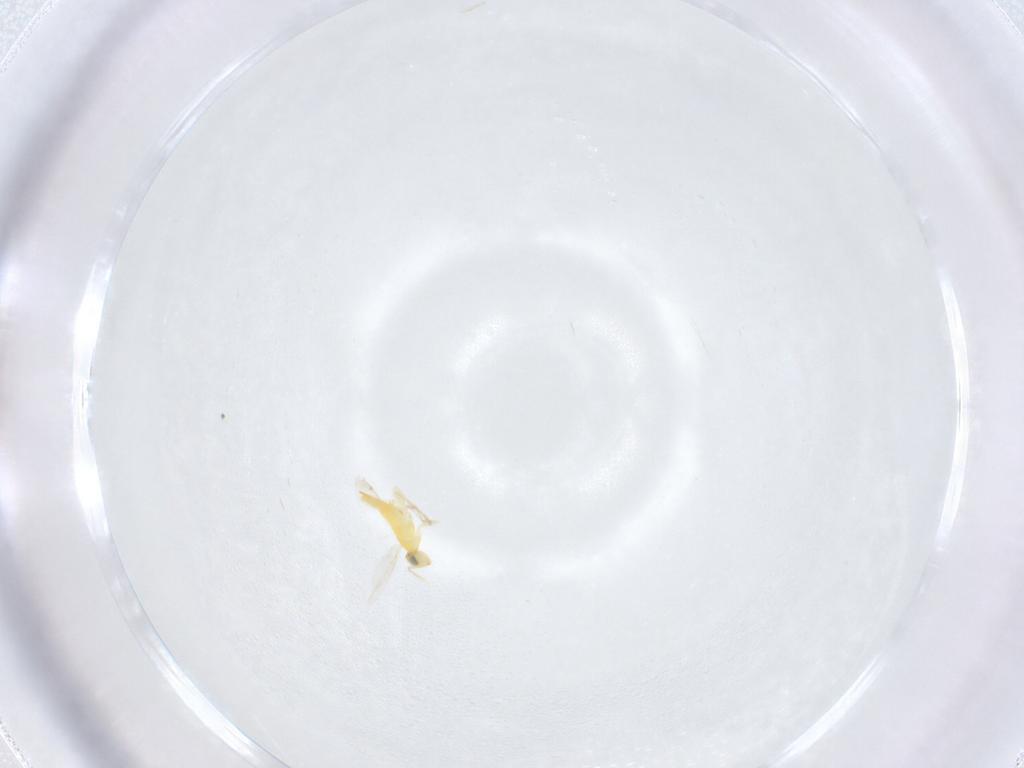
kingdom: Animalia
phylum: Arthropoda
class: Insecta
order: Hymenoptera
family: Aphelinidae
